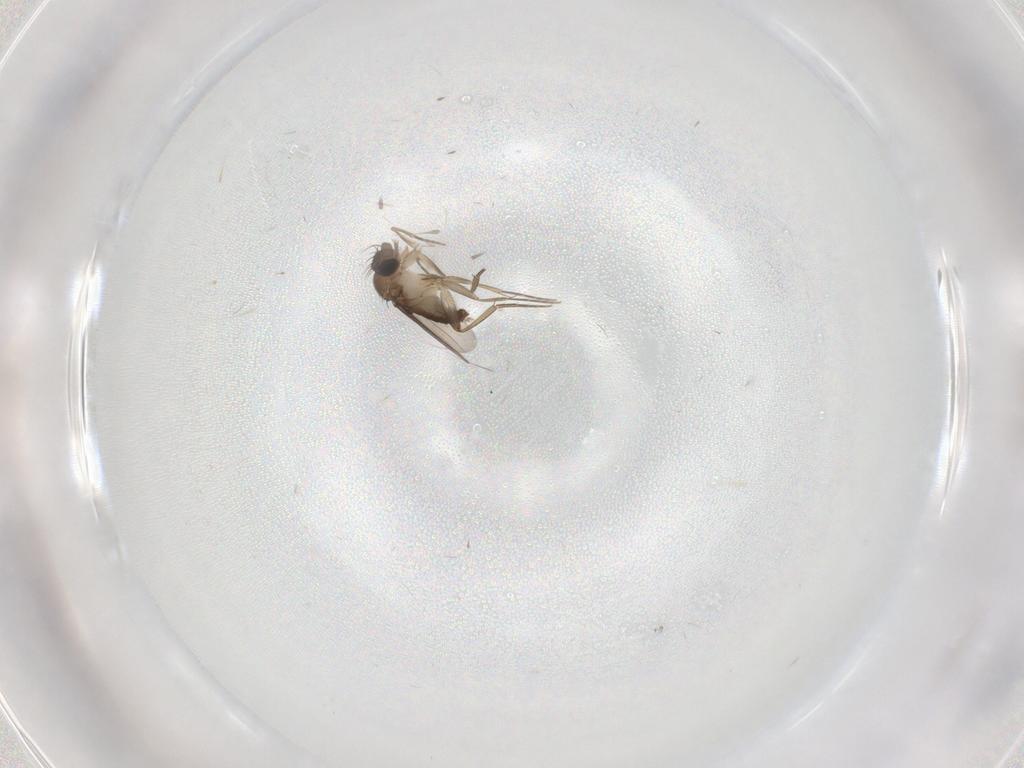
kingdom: Animalia
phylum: Arthropoda
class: Insecta
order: Diptera
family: Phoridae
